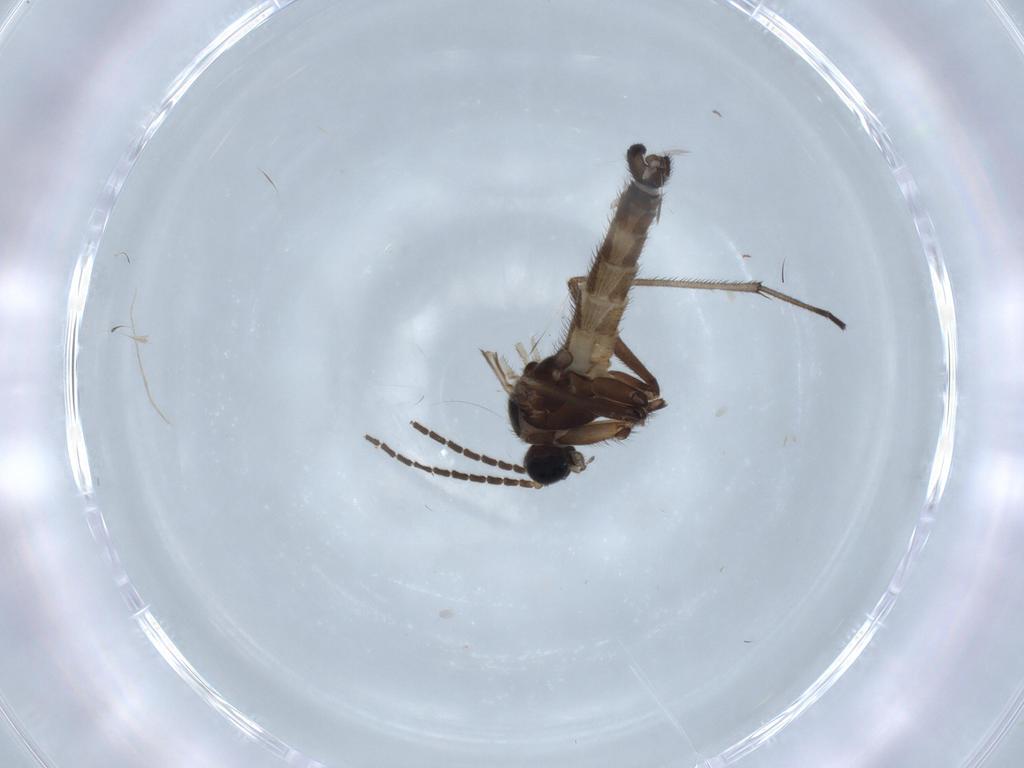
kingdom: Animalia
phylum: Arthropoda
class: Insecta
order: Diptera
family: Sciaridae
